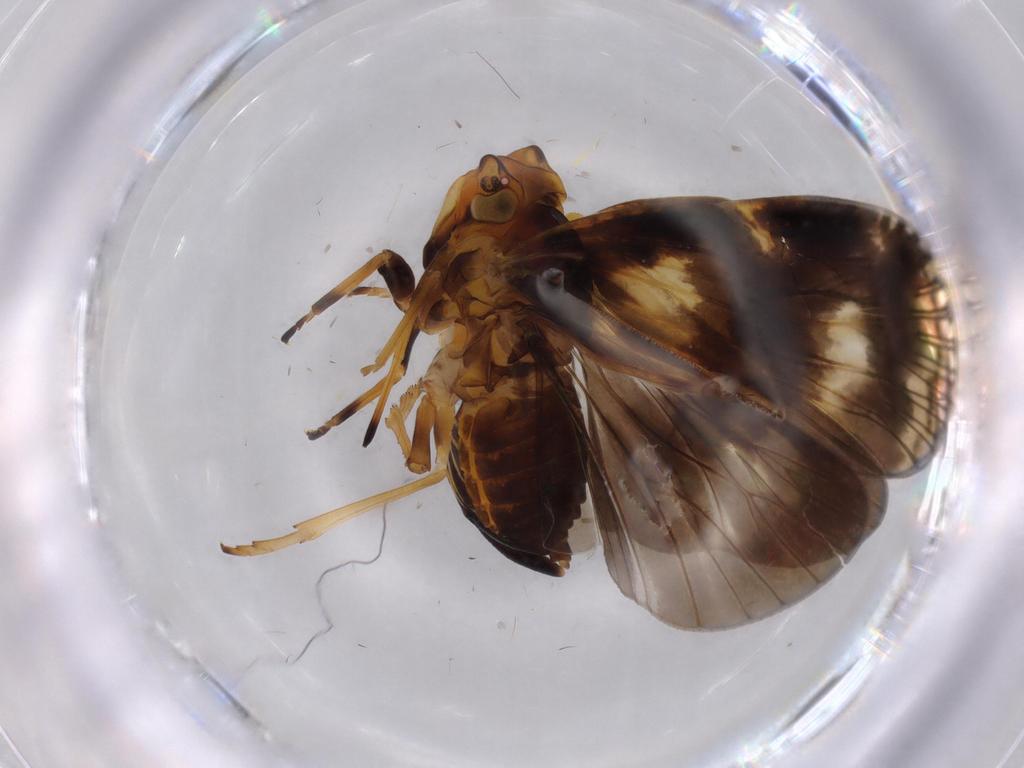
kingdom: Animalia
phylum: Arthropoda
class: Insecta
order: Hemiptera
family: Cixiidae
